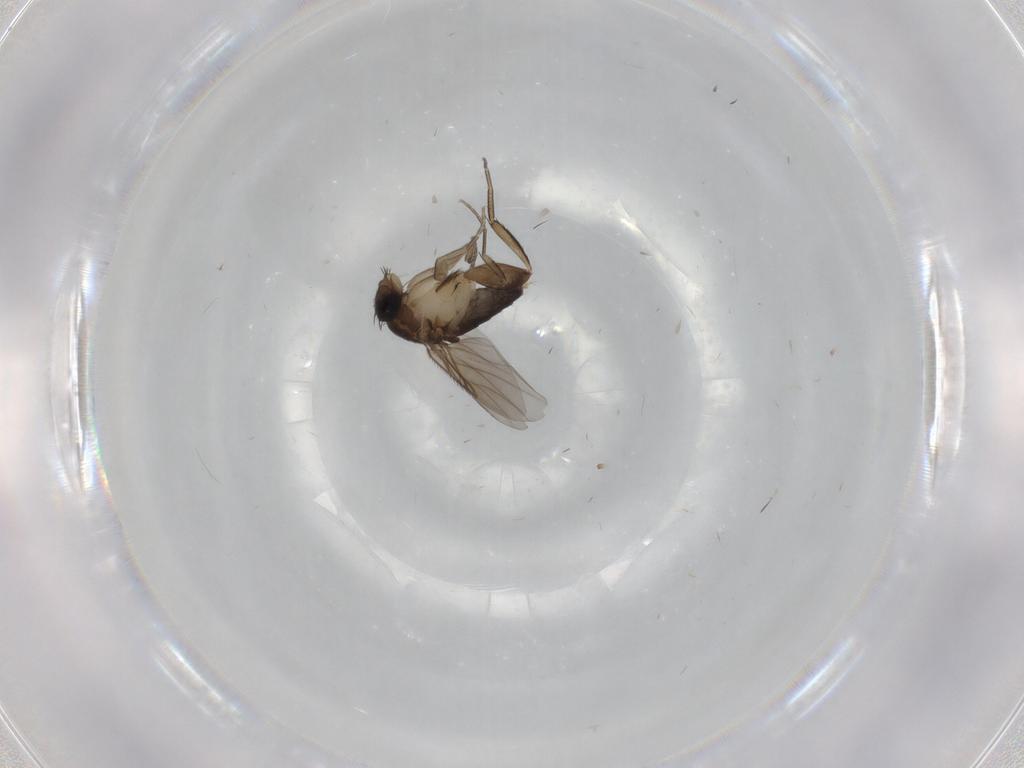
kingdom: Animalia
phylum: Arthropoda
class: Insecta
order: Diptera
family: Phoridae
